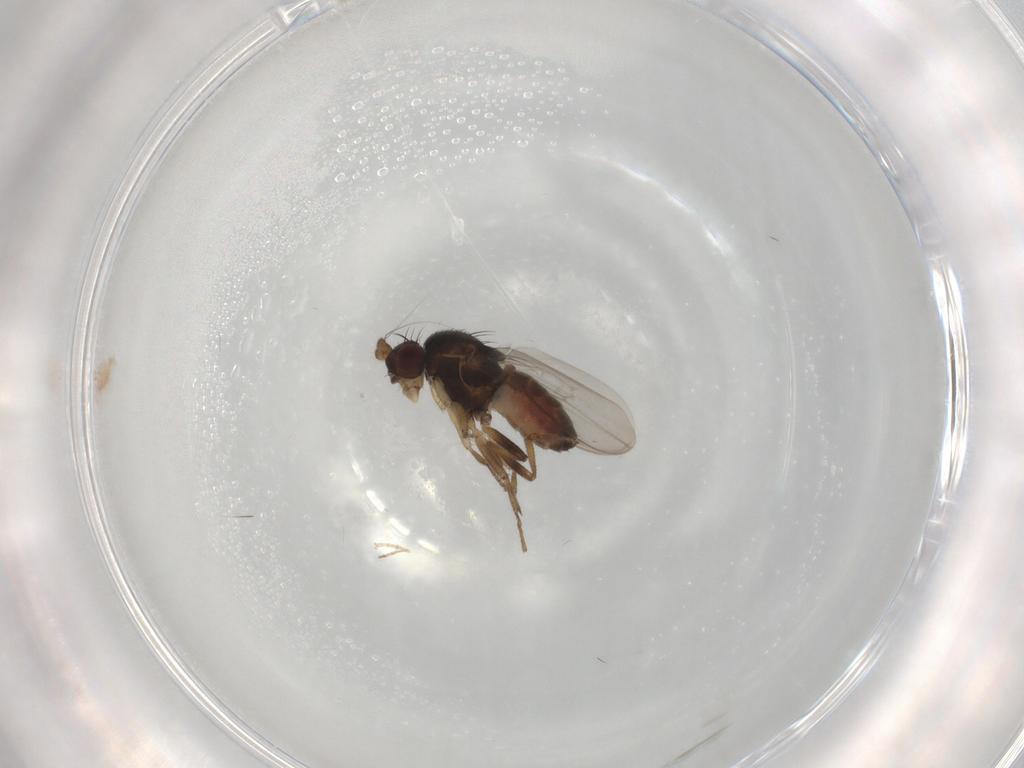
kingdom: Animalia
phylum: Arthropoda
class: Insecta
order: Diptera
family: Sphaeroceridae
